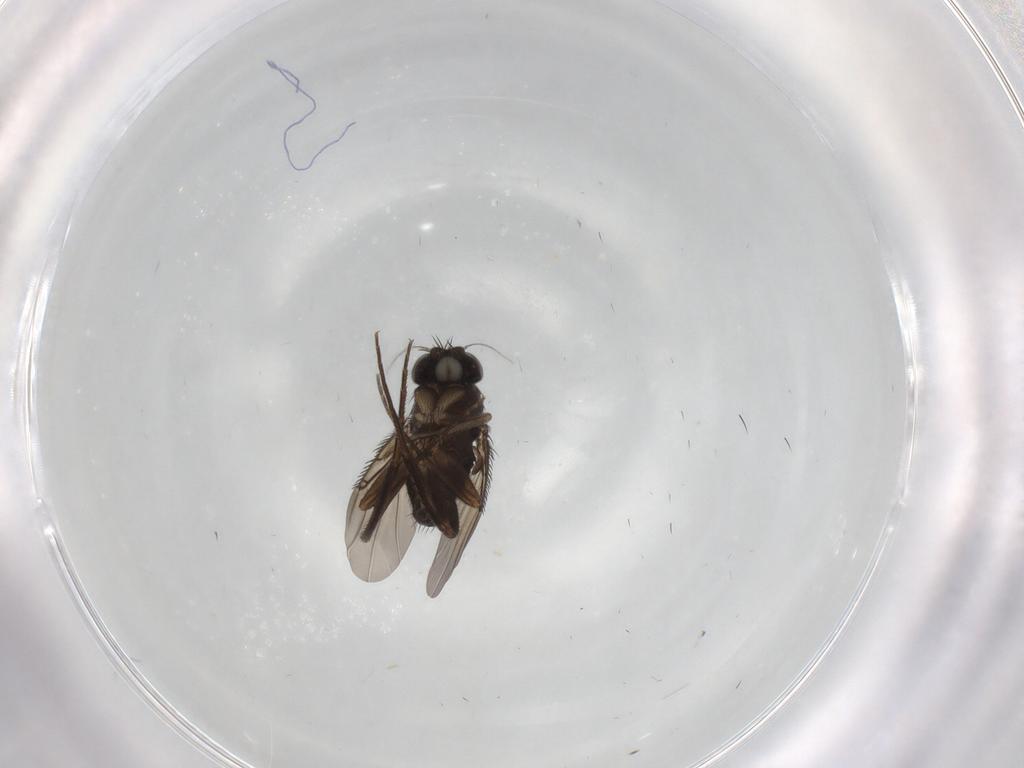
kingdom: Animalia
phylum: Arthropoda
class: Insecta
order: Diptera
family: Phoridae
